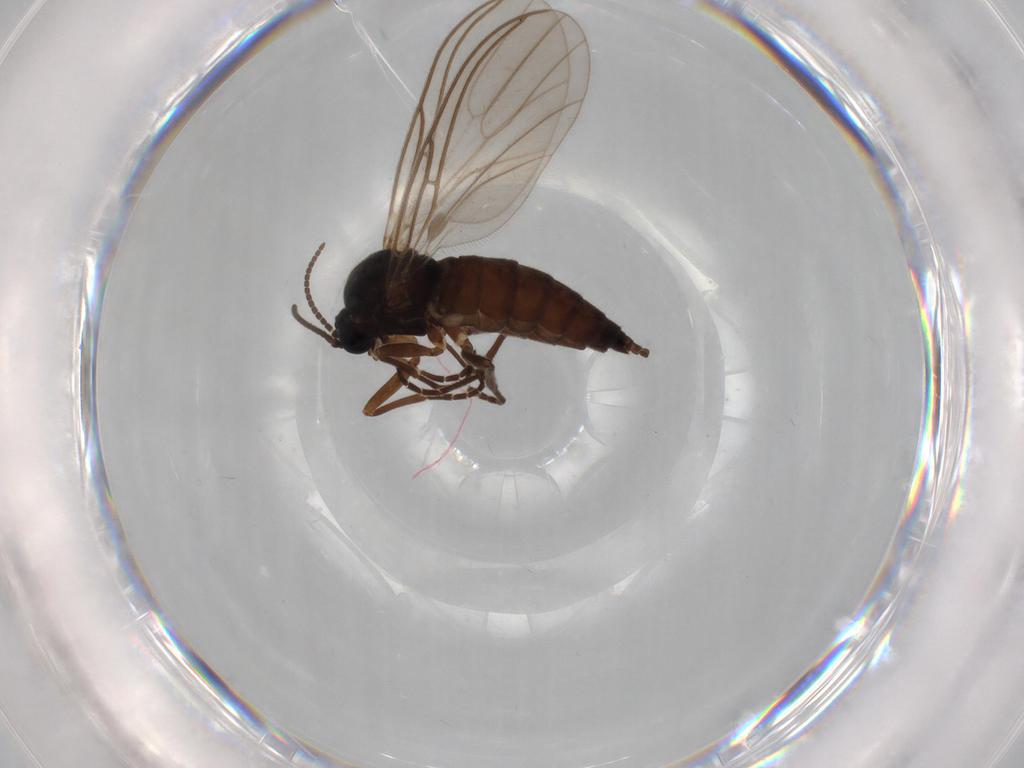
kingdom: Animalia
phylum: Arthropoda
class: Insecta
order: Diptera
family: Sciaridae
